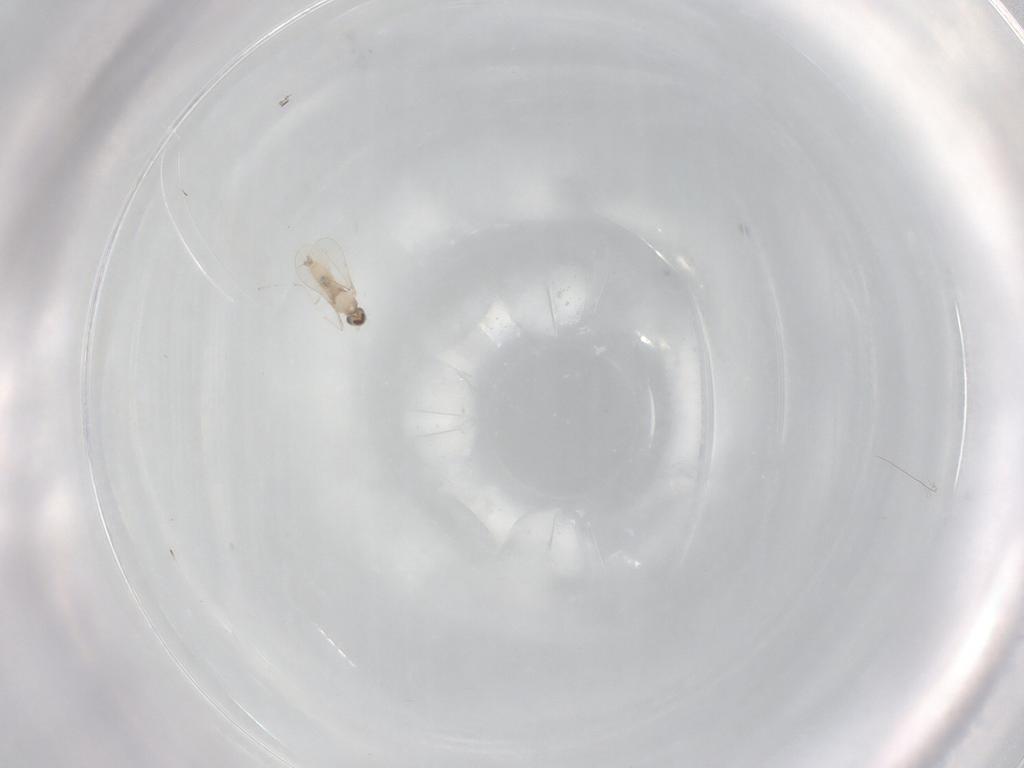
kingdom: Animalia
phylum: Arthropoda
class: Insecta
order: Diptera
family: Cecidomyiidae
